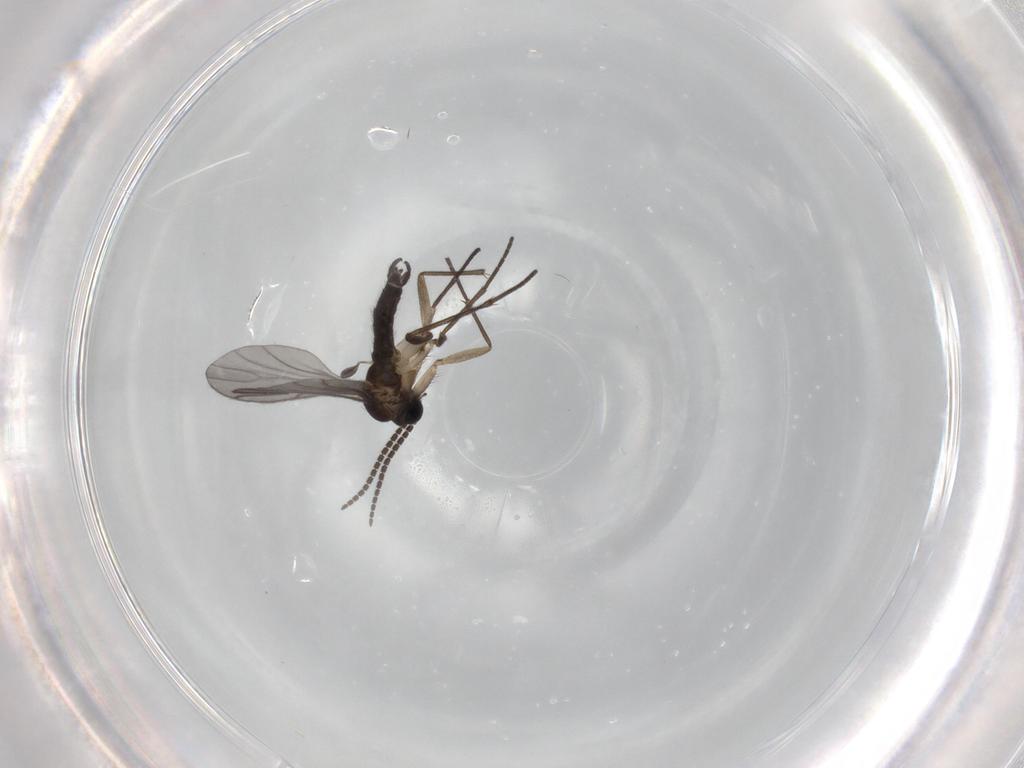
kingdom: Animalia
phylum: Arthropoda
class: Insecta
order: Diptera
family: Sciaridae
